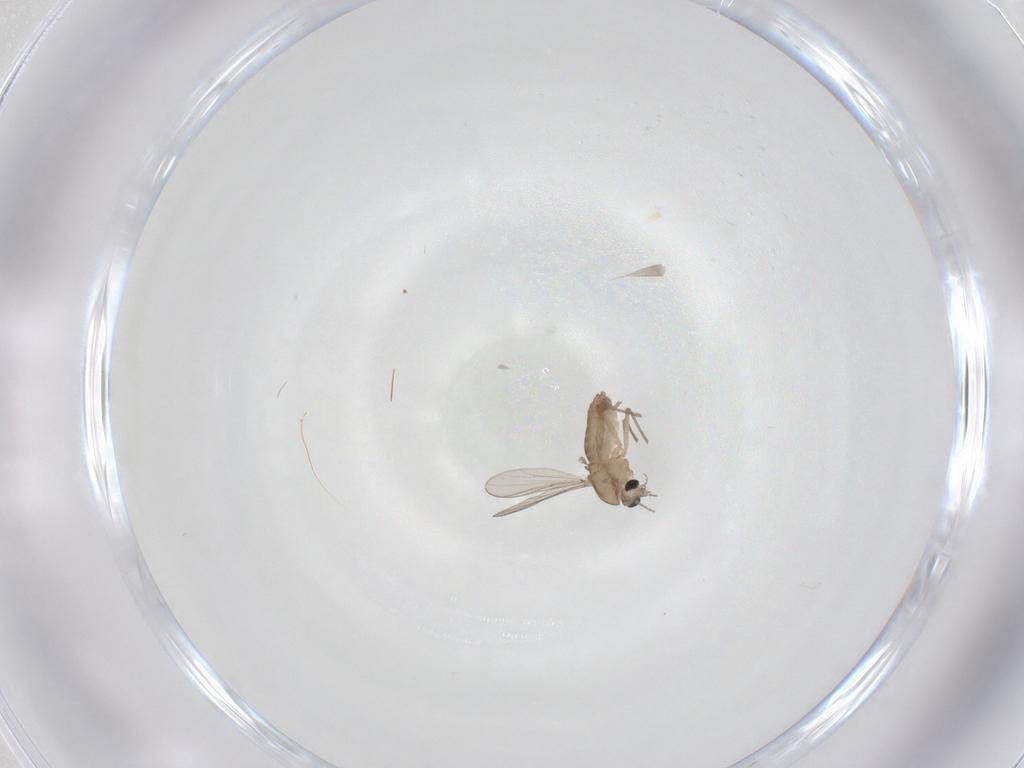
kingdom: Animalia
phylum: Arthropoda
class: Insecta
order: Diptera
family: Chironomidae
